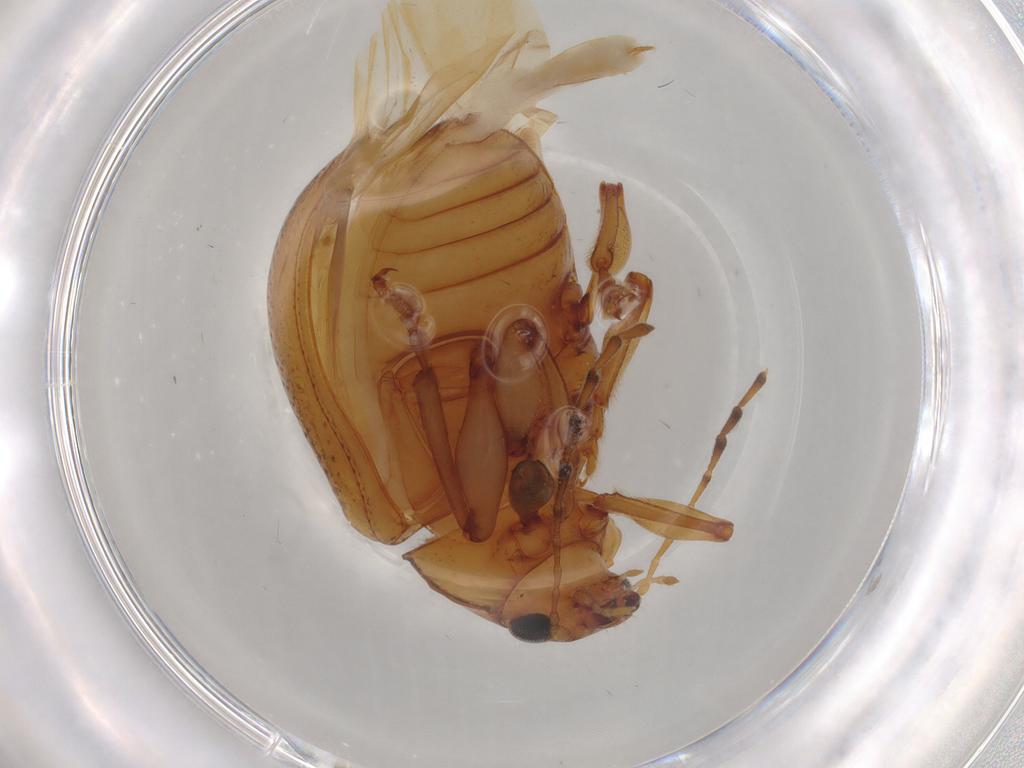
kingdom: Animalia
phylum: Arthropoda
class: Insecta
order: Coleoptera
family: Chrysomelidae
